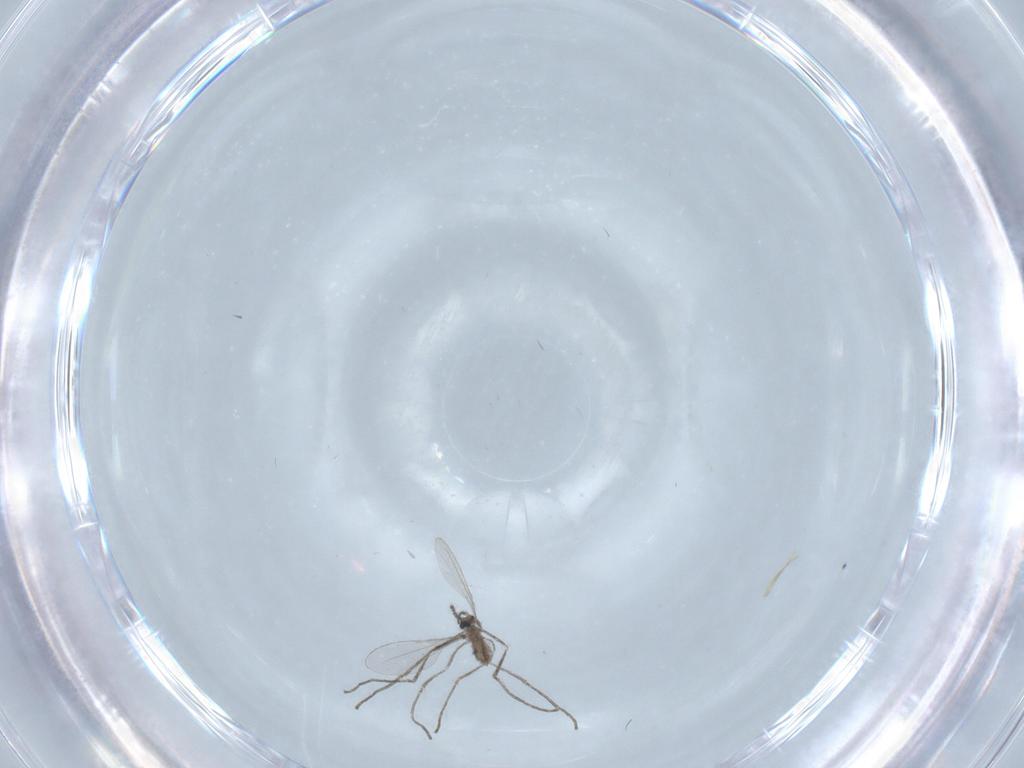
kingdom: Animalia
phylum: Arthropoda
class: Insecta
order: Diptera
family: Cecidomyiidae
